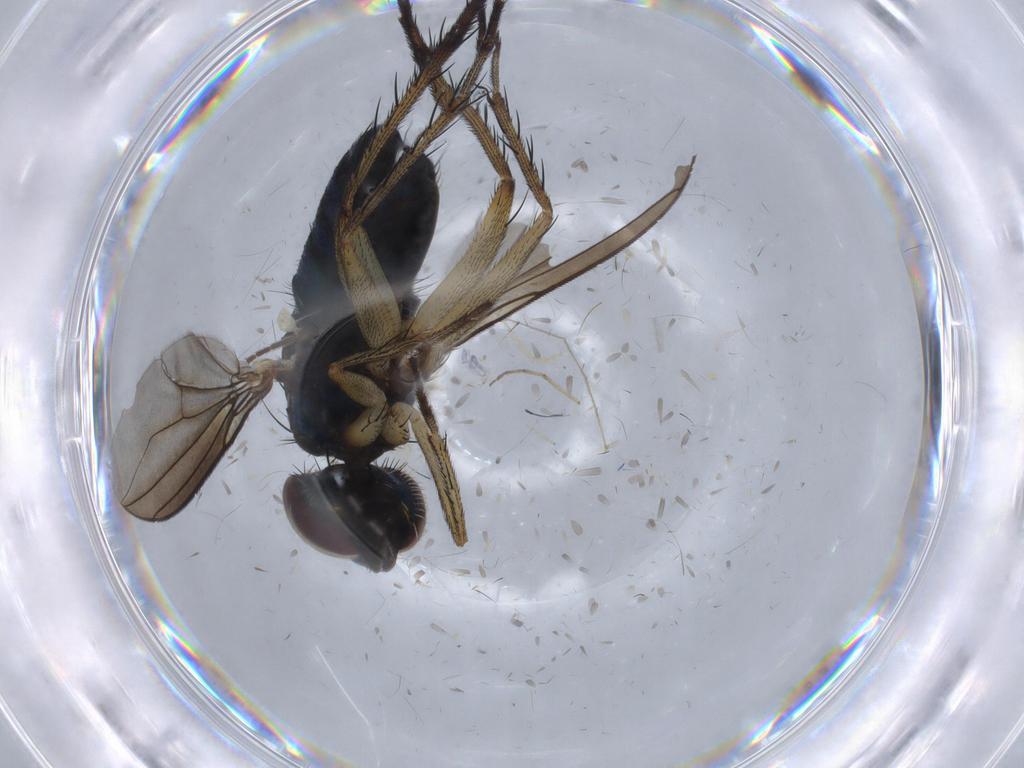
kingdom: Animalia
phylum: Arthropoda
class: Insecta
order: Diptera
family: Dolichopodidae
